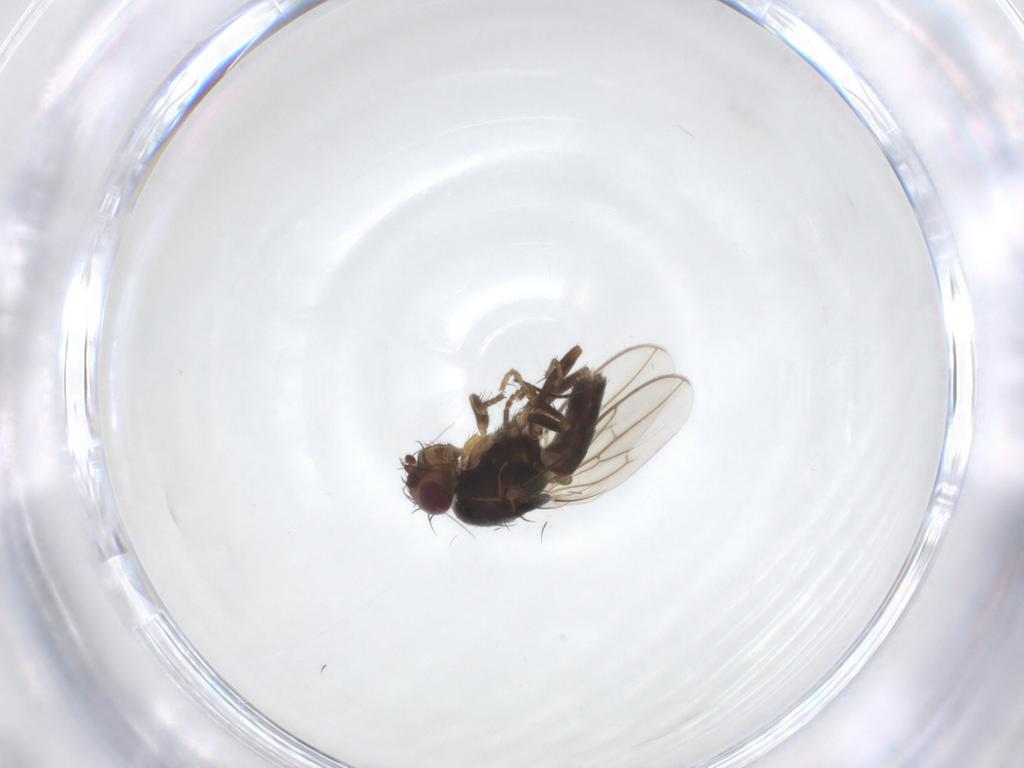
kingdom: Animalia
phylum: Arthropoda
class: Insecta
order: Diptera
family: Sphaeroceridae
